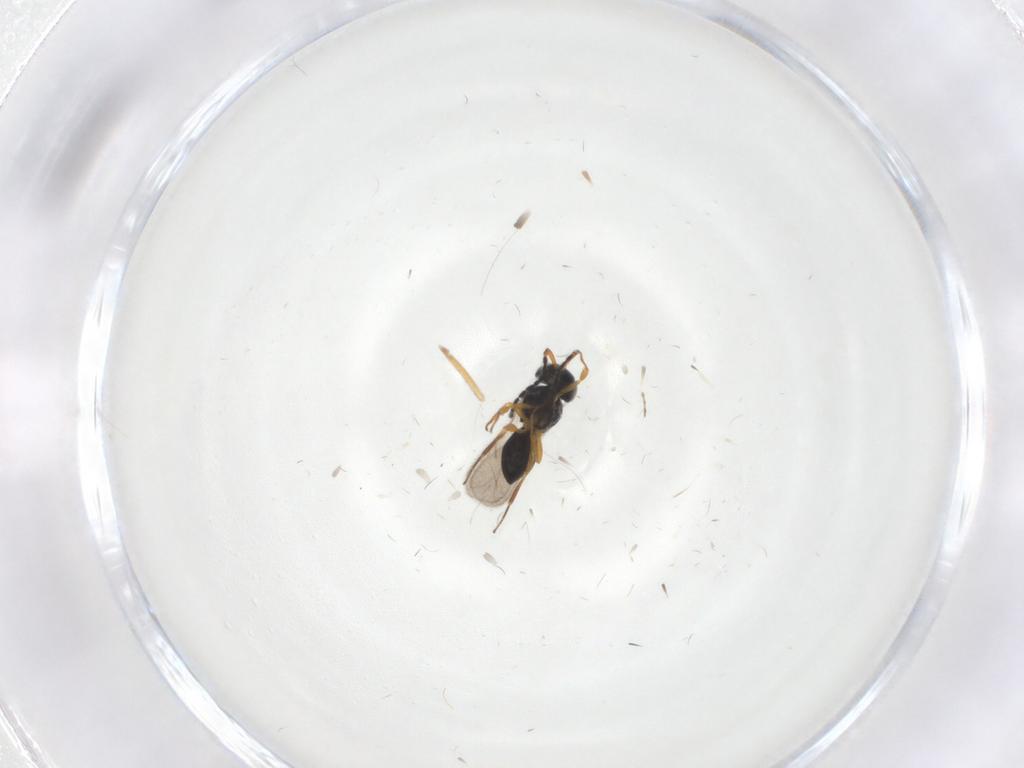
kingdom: Animalia
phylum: Arthropoda
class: Insecta
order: Hymenoptera
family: Scelionidae
